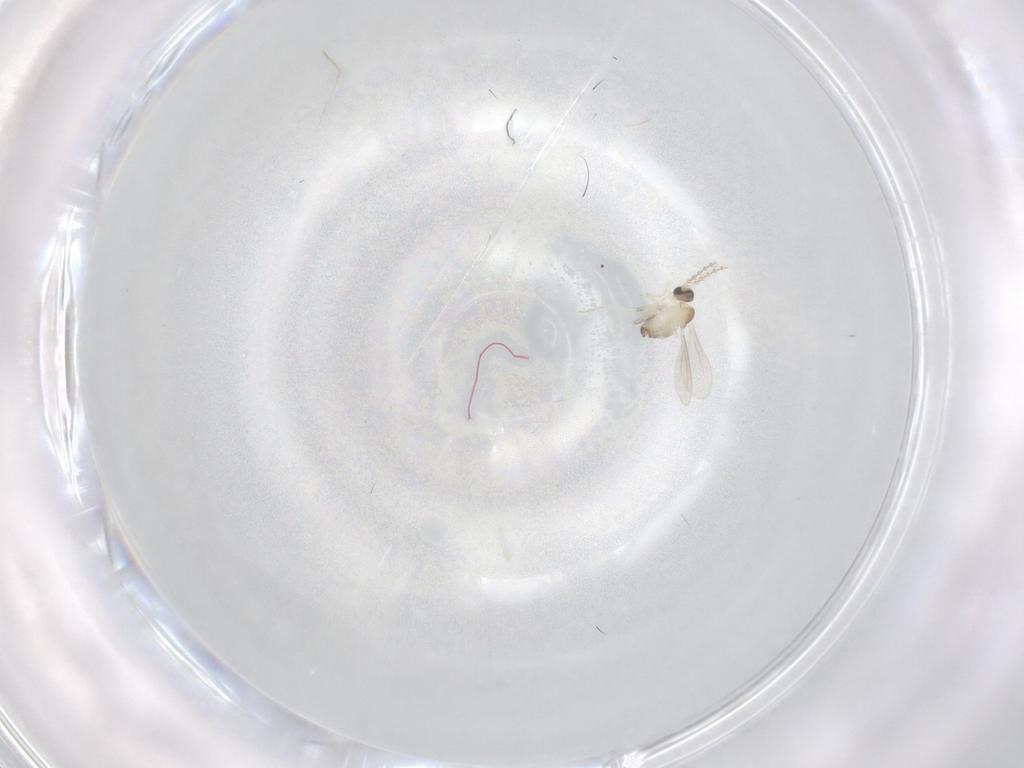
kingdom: Animalia
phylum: Arthropoda
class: Insecta
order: Diptera
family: Cecidomyiidae
